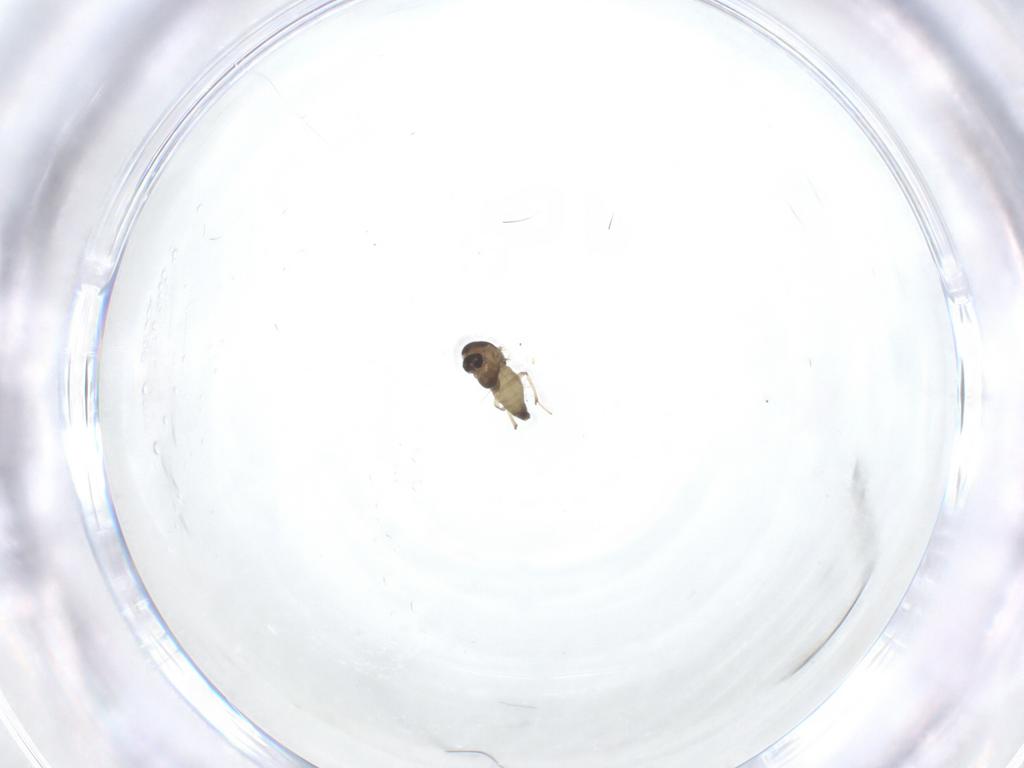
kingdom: Animalia
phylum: Arthropoda
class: Insecta
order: Diptera
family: Chironomidae
